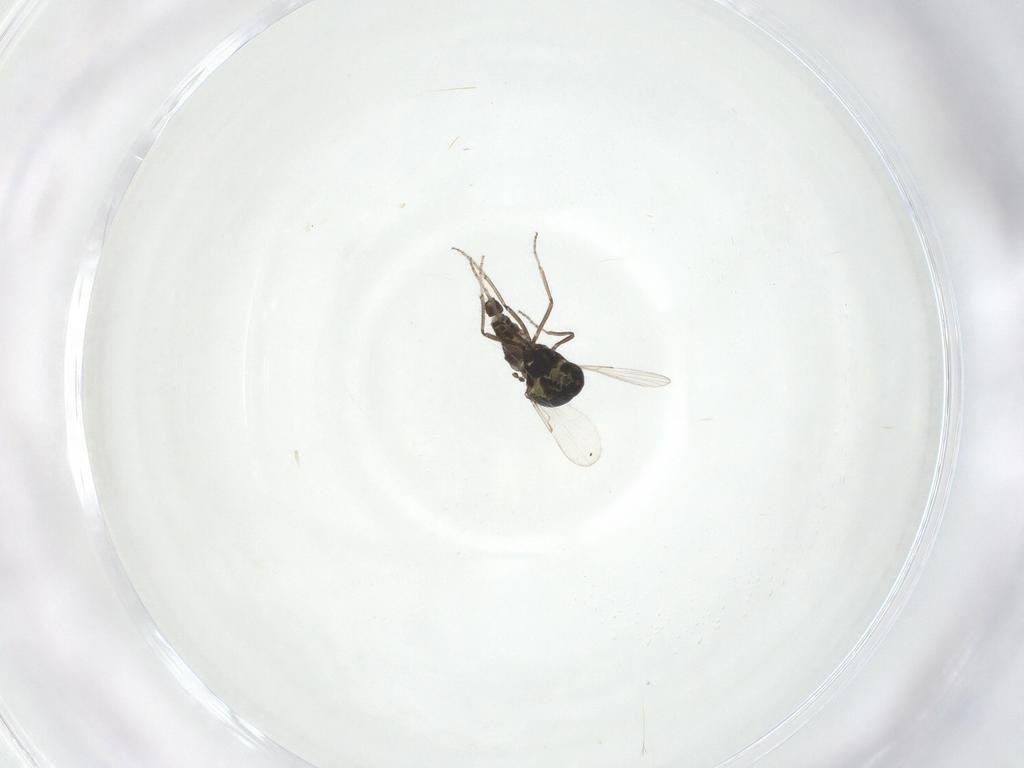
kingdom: Animalia
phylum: Arthropoda
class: Insecta
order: Diptera
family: Ceratopogonidae
